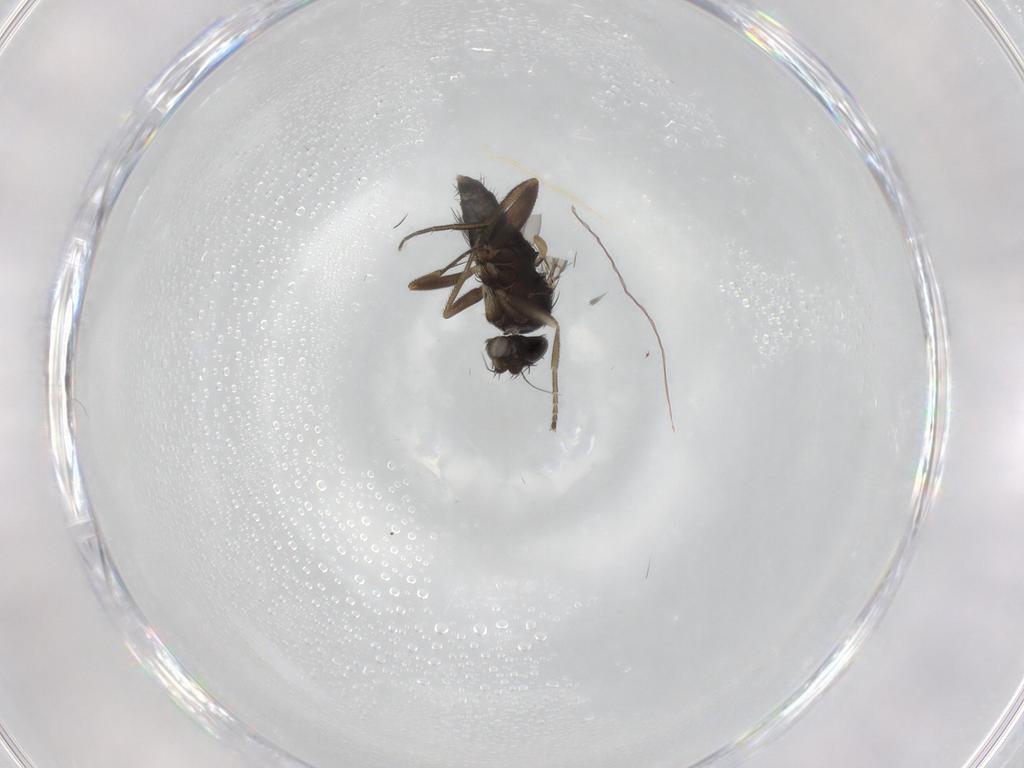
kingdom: Animalia
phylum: Arthropoda
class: Insecta
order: Diptera
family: Phoridae
